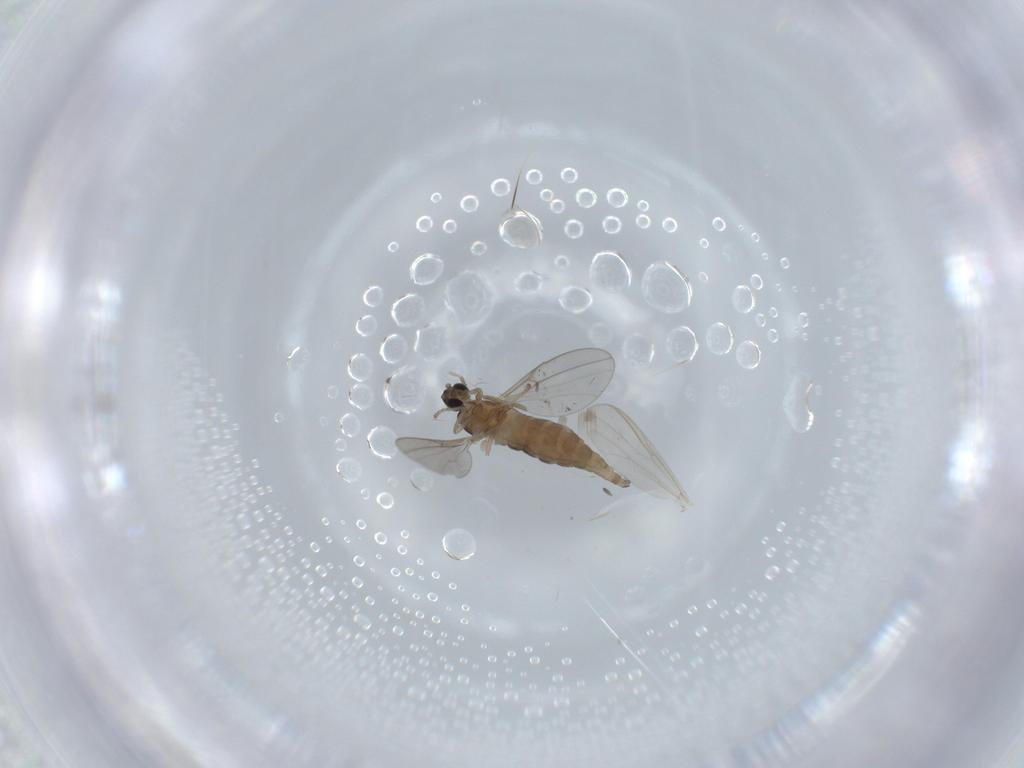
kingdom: Animalia
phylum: Arthropoda
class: Insecta
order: Diptera
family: Cecidomyiidae
